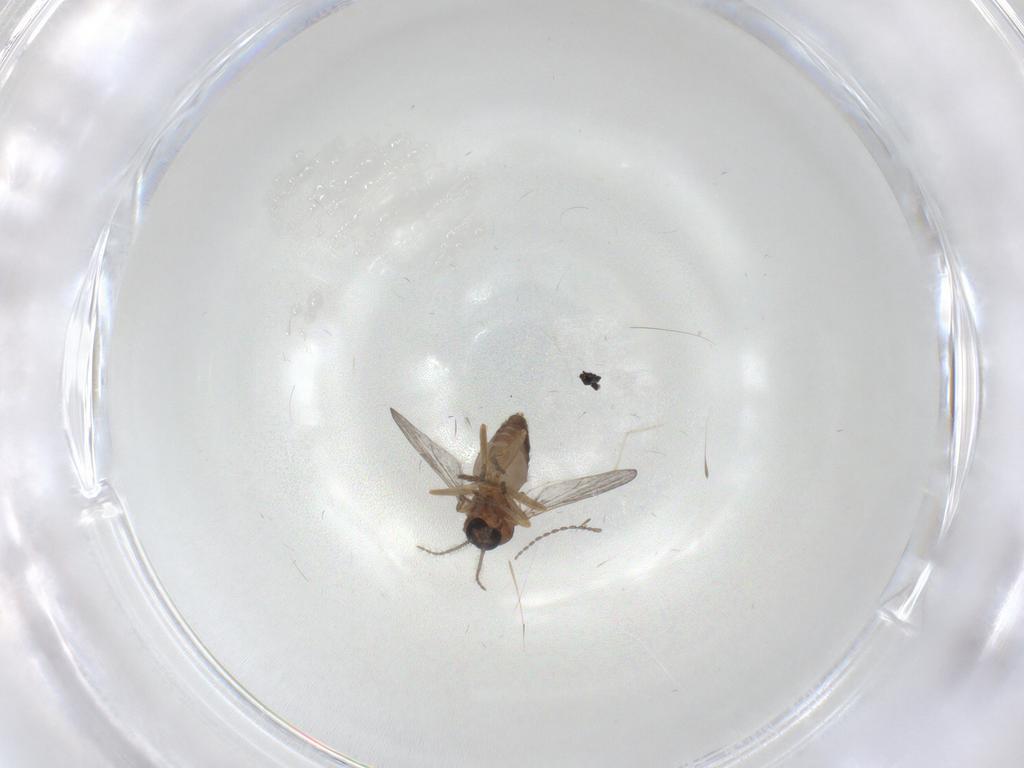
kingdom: Animalia
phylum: Arthropoda
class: Insecta
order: Diptera
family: Ceratopogonidae
